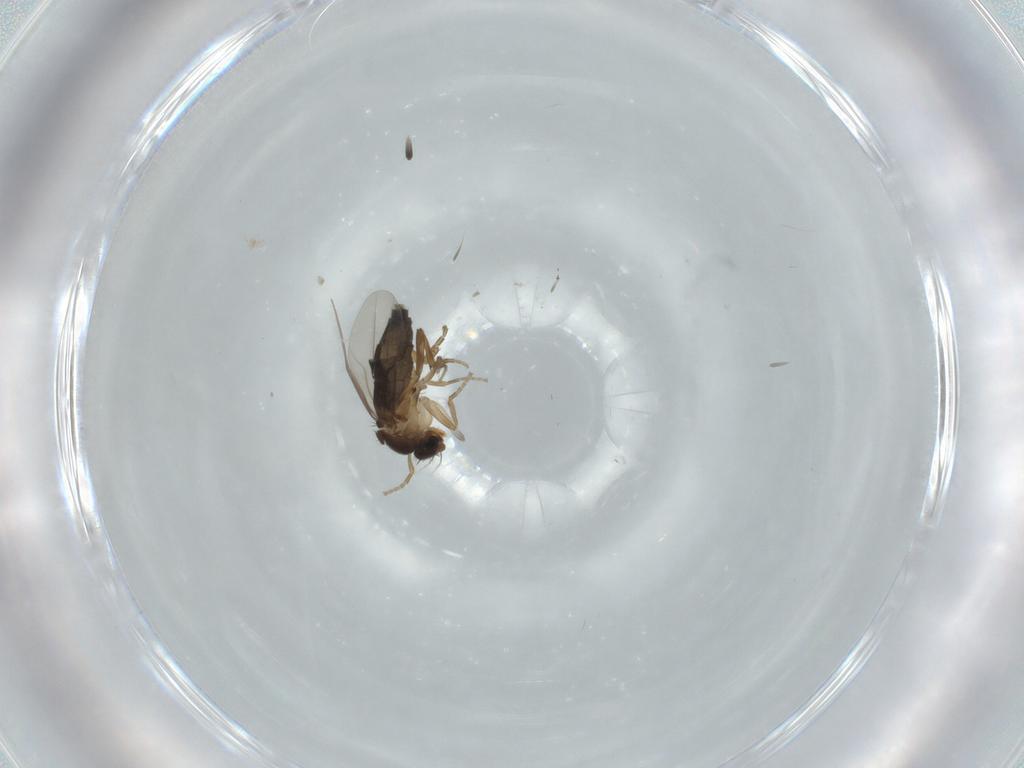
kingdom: Animalia
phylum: Arthropoda
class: Insecta
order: Diptera
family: Phoridae
